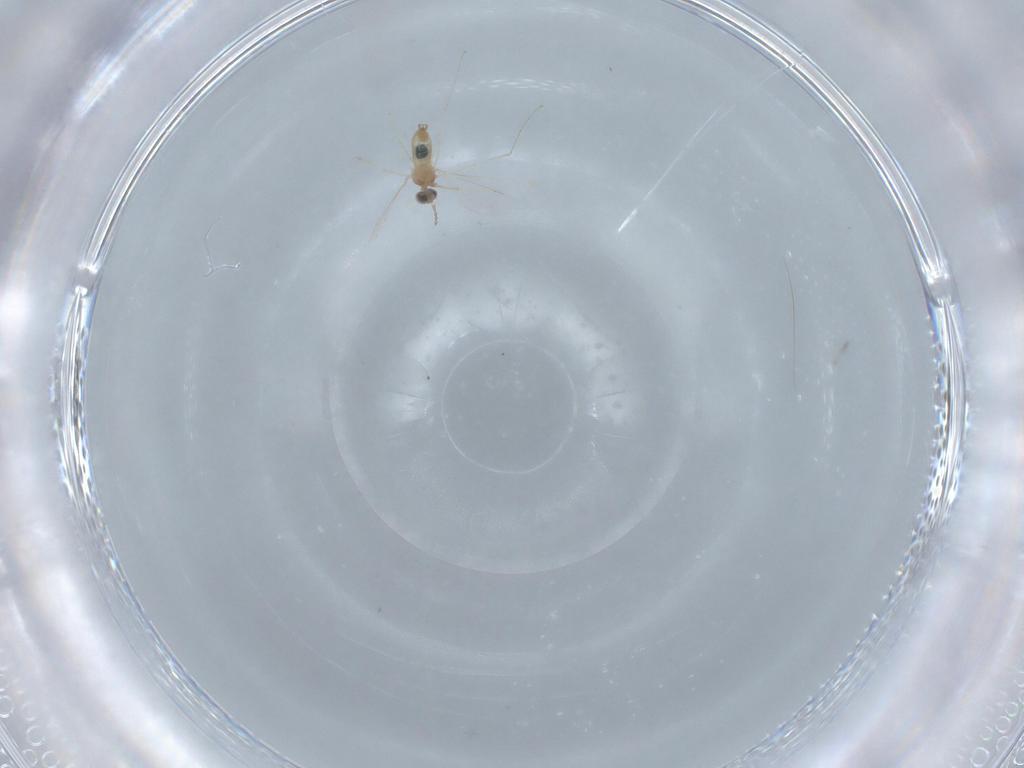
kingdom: Animalia
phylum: Arthropoda
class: Insecta
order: Diptera
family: Cecidomyiidae
